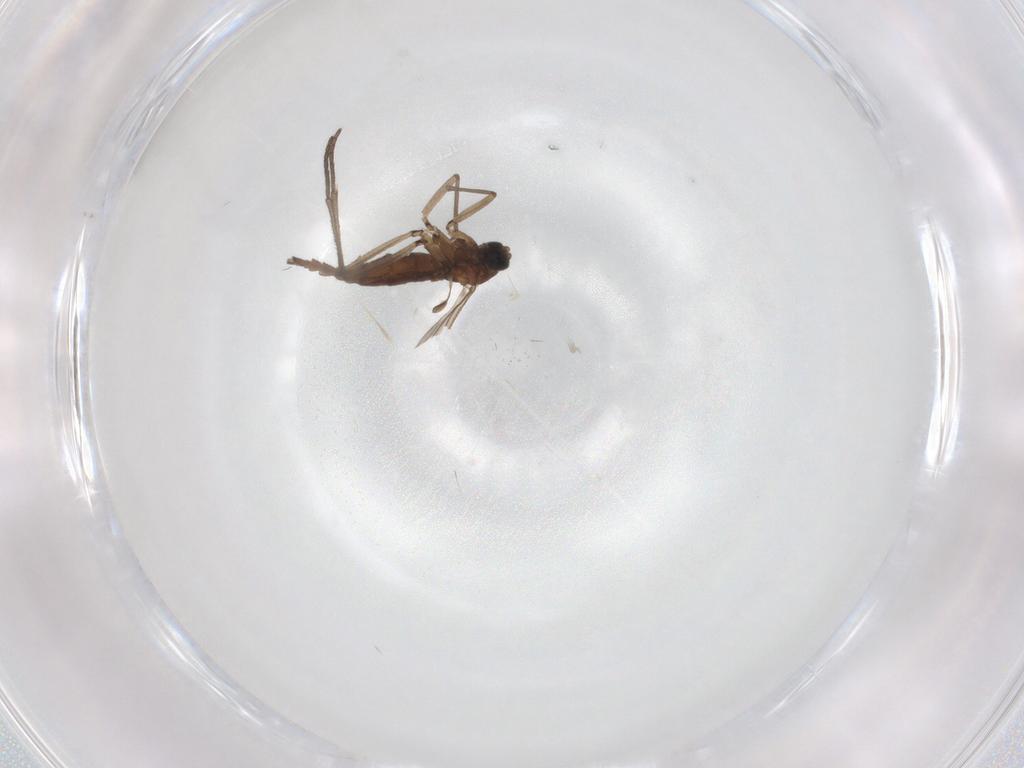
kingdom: Animalia
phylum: Arthropoda
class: Insecta
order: Diptera
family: Sciaridae
